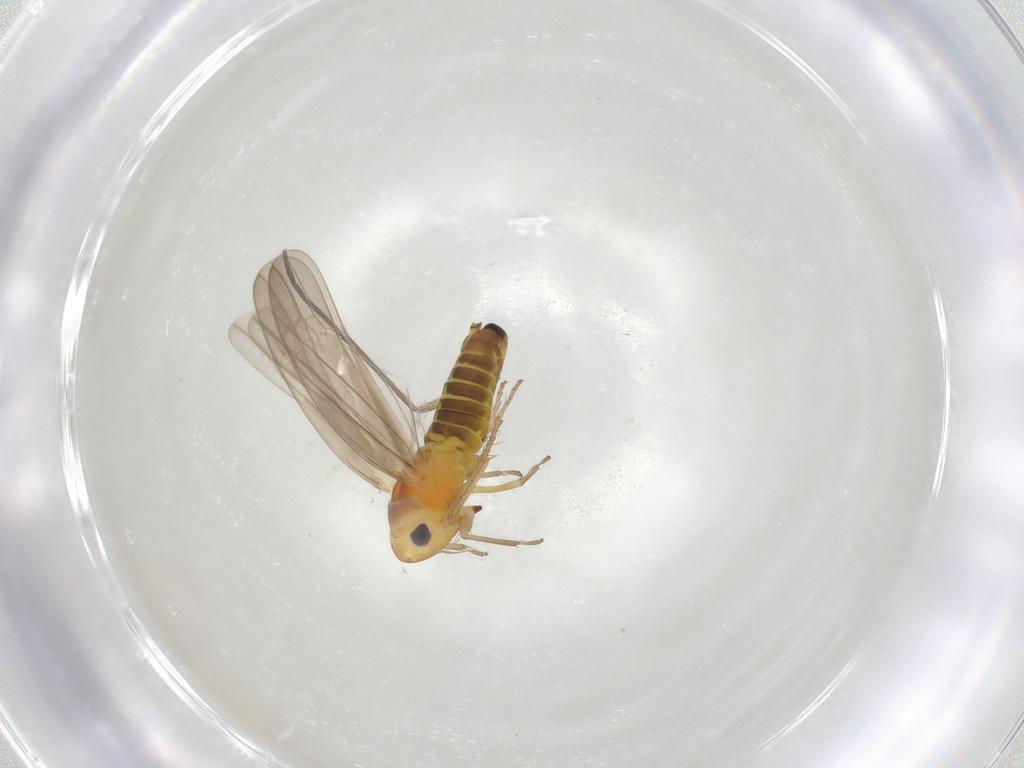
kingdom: Animalia
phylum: Arthropoda
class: Insecta
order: Hemiptera
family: Cicadellidae
